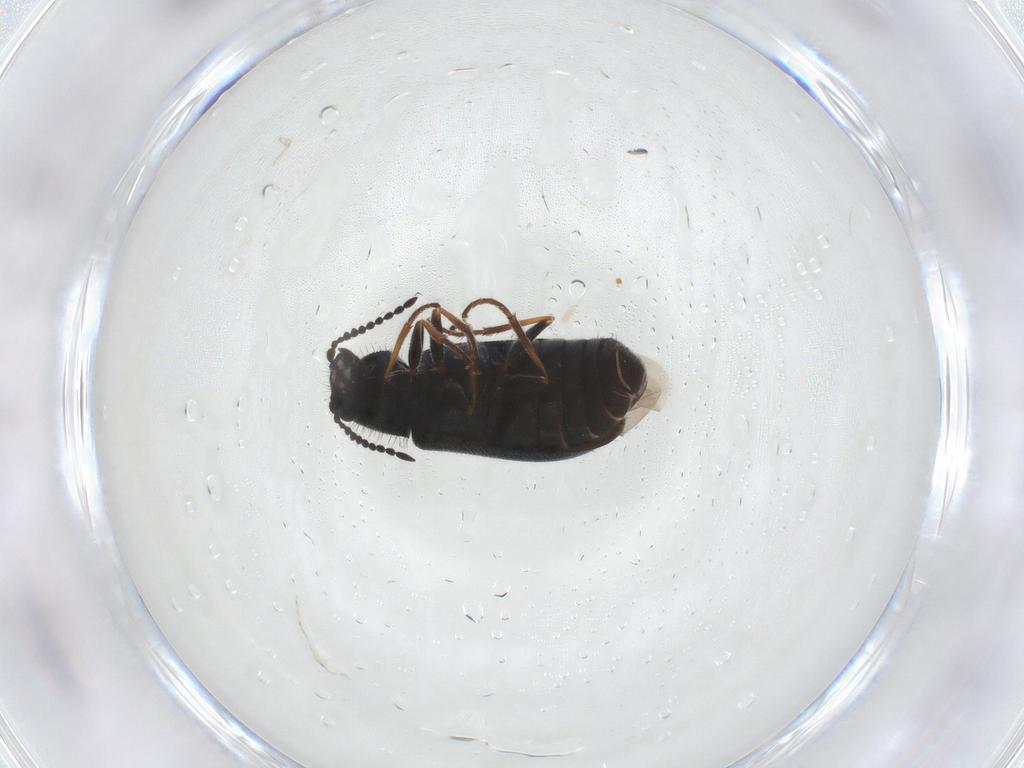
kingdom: Animalia
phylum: Arthropoda
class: Insecta
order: Coleoptera
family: Melyridae
